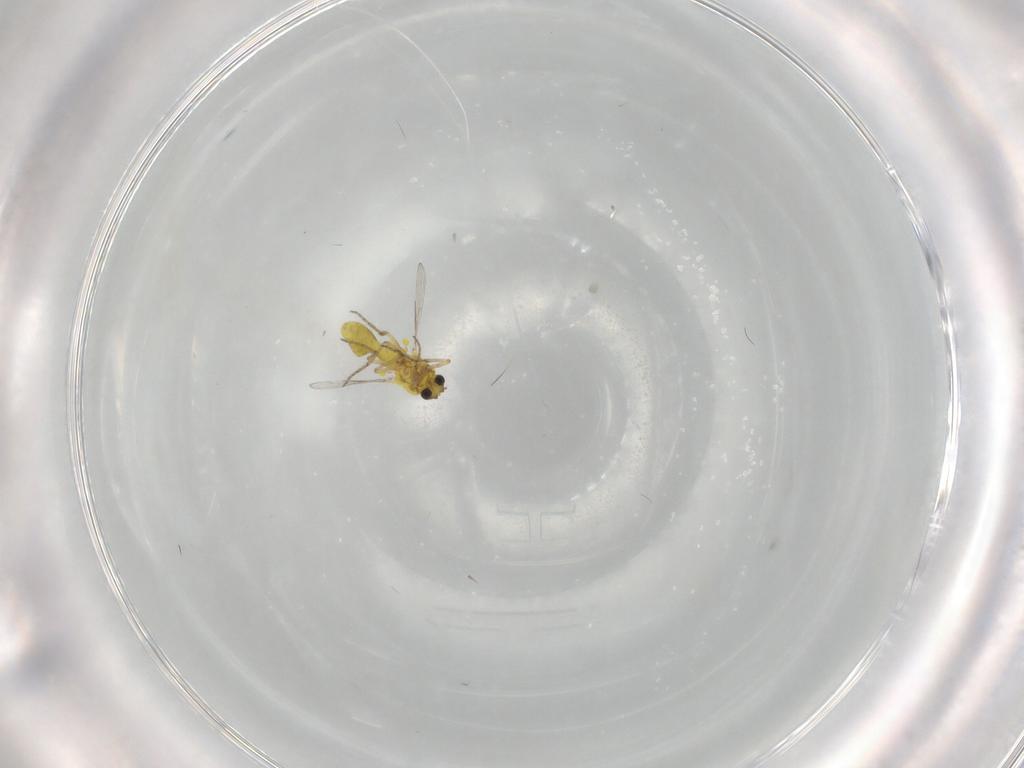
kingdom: Animalia
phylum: Arthropoda
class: Insecta
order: Diptera
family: Ceratopogonidae
